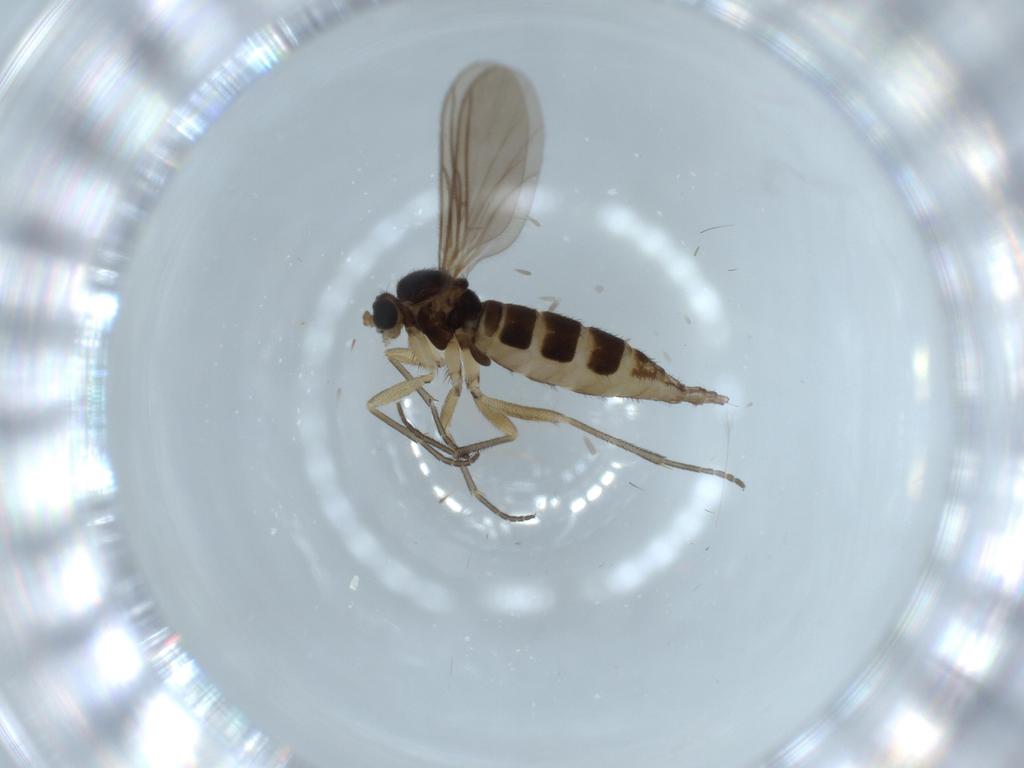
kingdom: Animalia
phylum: Arthropoda
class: Insecta
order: Diptera
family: Sciaridae
